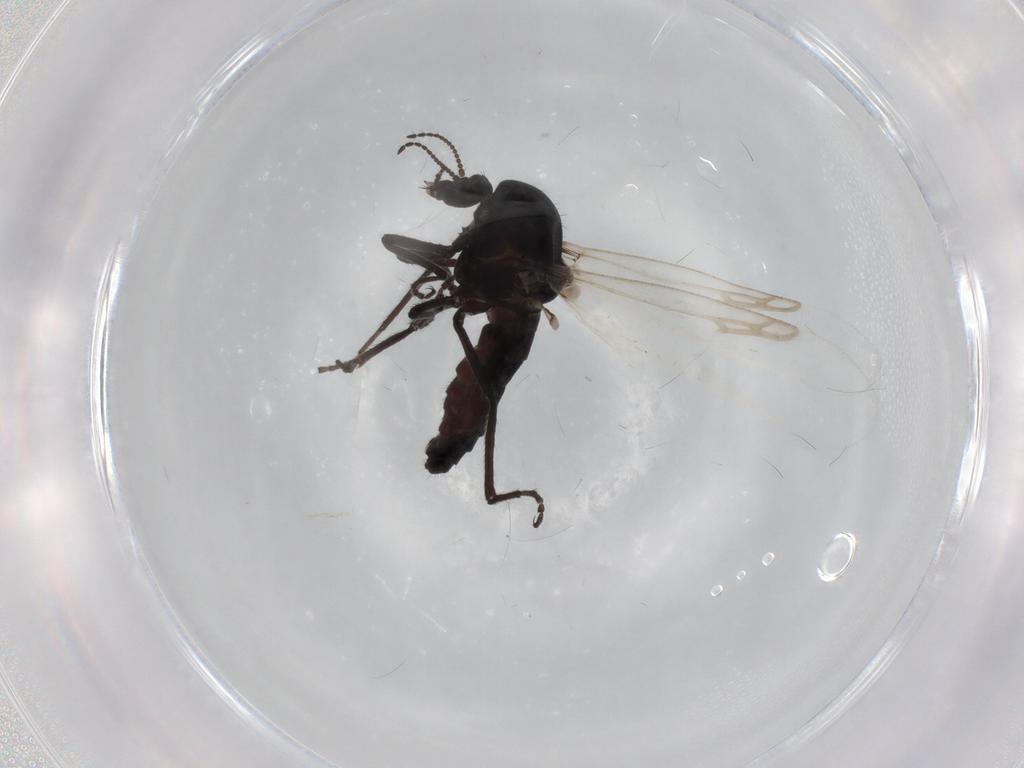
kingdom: Animalia
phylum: Arthropoda
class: Insecta
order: Diptera
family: Ceratopogonidae
